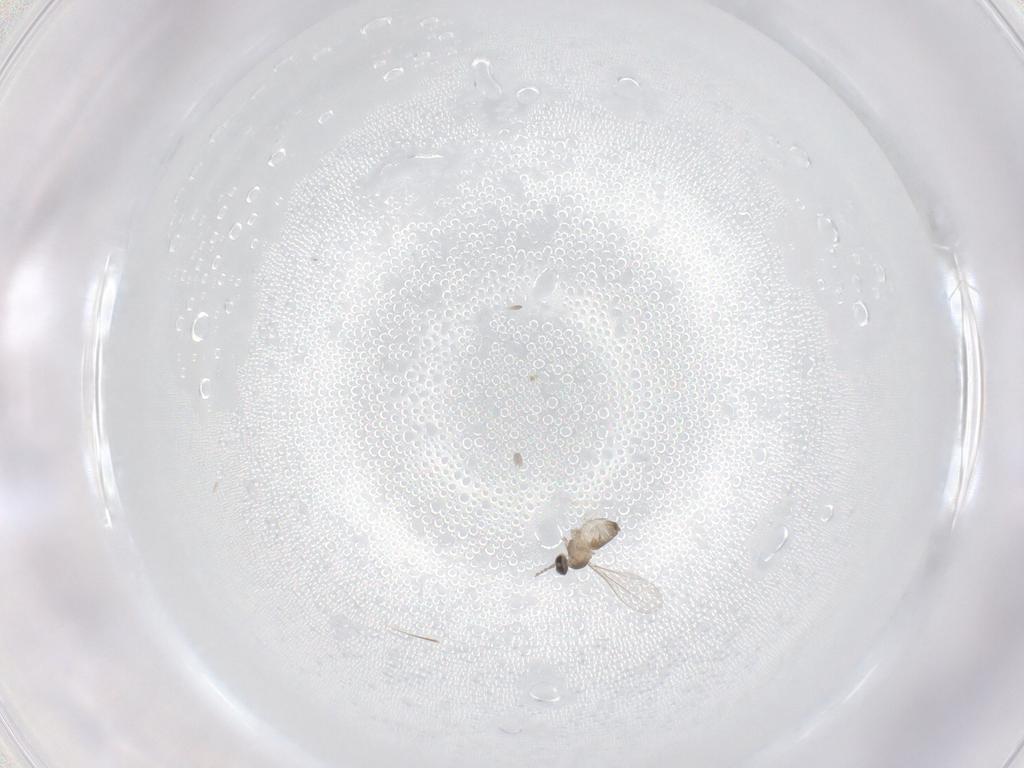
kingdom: Animalia
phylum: Arthropoda
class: Insecta
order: Diptera
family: Cecidomyiidae
